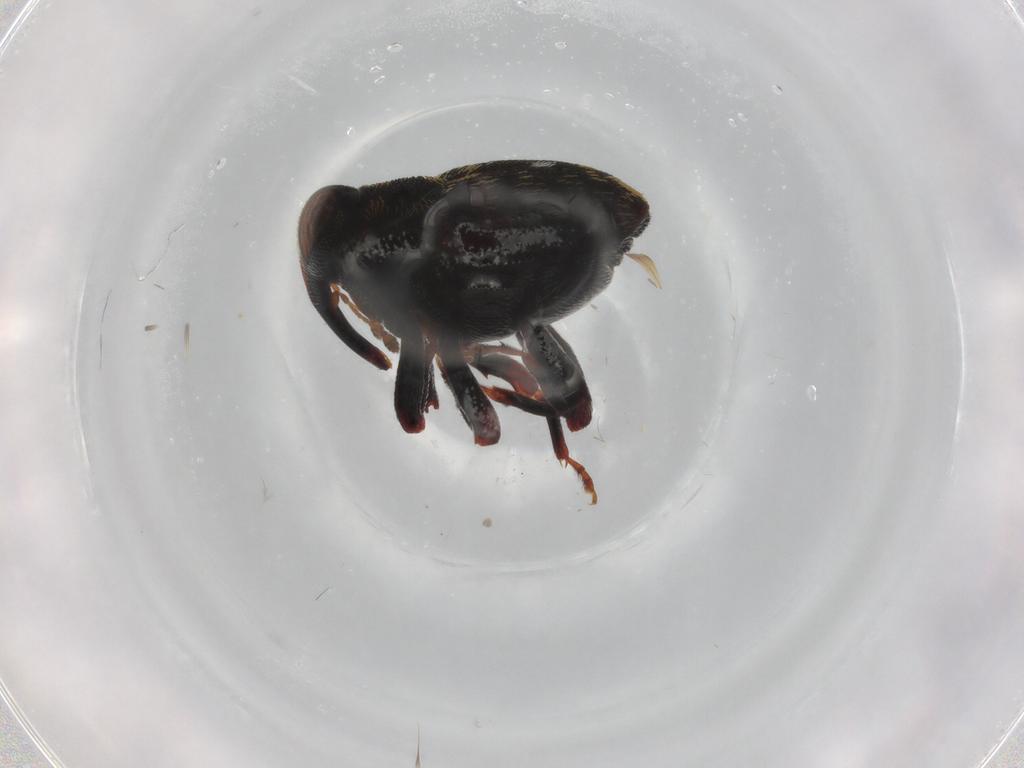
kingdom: Animalia
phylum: Arthropoda
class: Insecta
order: Coleoptera
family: Curculionidae
